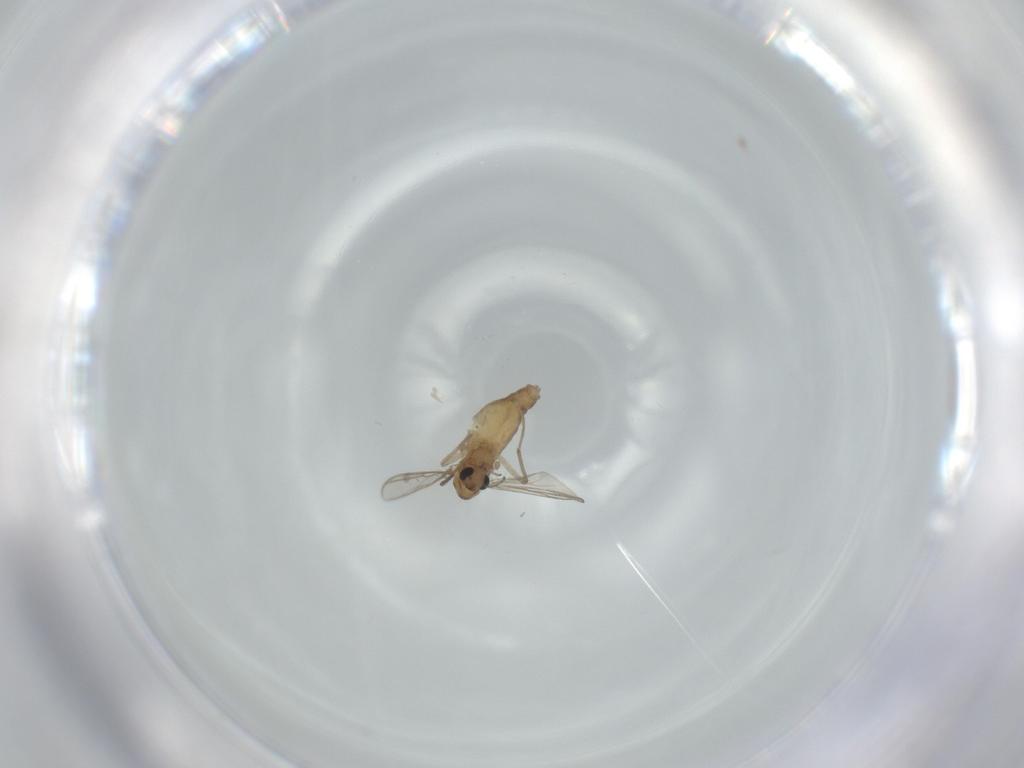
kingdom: Animalia
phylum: Arthropoda
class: Insecta
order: Diptera
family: Chironomidae
